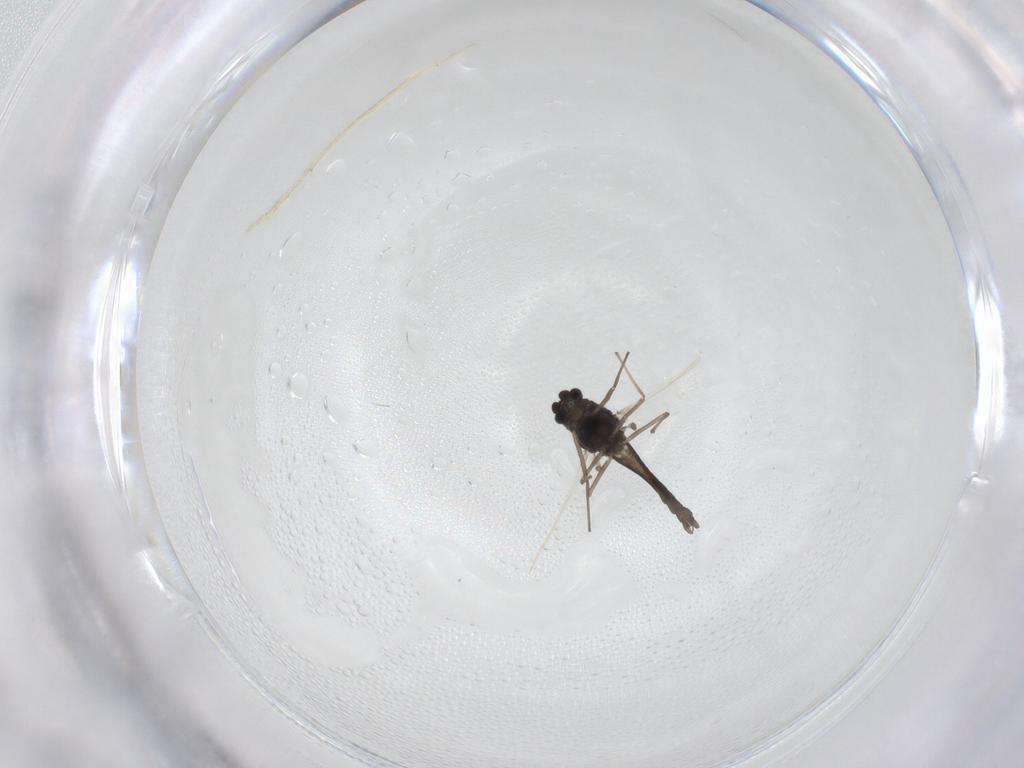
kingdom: Animalia
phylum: Arthropoda
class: Insecta
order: Diptera
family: Chironomidae
